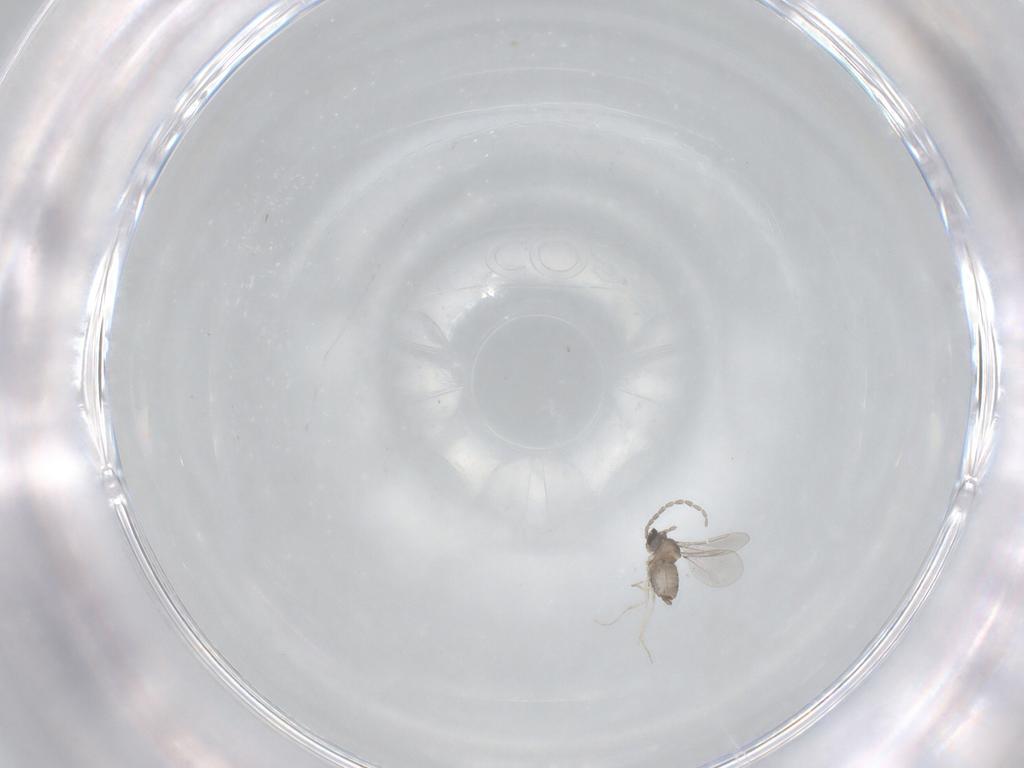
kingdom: Animalia
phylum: Arthropoda
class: Insecta
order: Diptera
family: Cecidomyiidae
